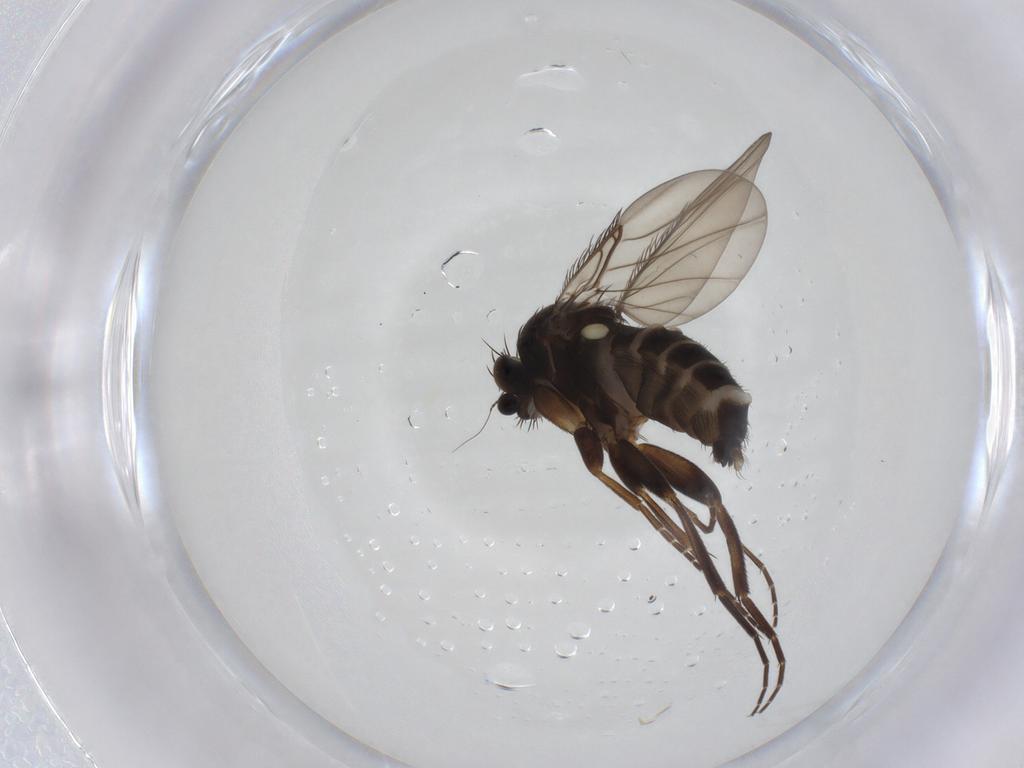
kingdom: Animalia
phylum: Arthropoda
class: Insecta
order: Diptera
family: Phoridae
